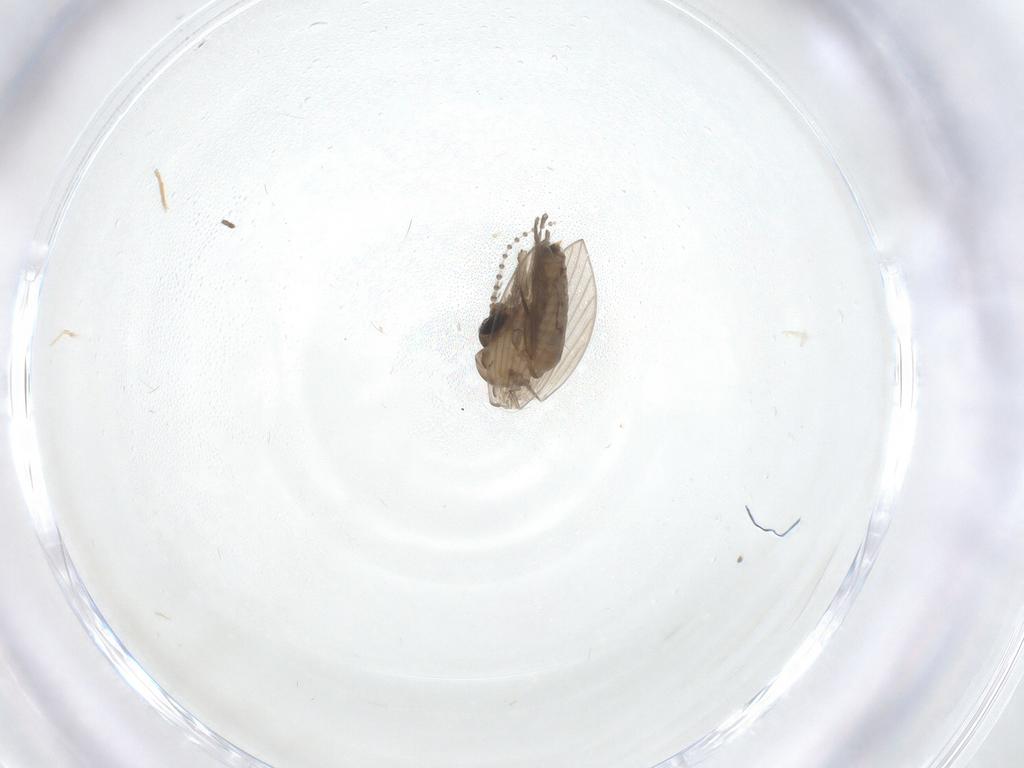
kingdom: Animalia
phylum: Arthropoda
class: Insecta
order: Diptera
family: Psychodidae
